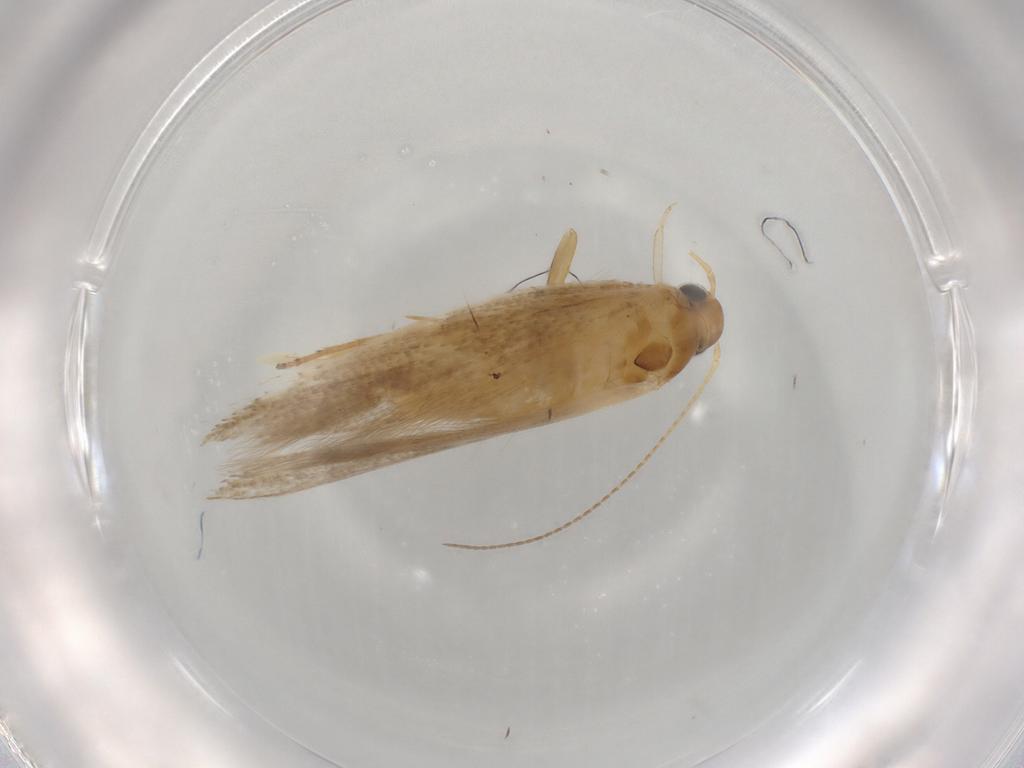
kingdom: Animalia
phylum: Arthropoda
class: Insecta
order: Lepidoptera
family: Gelechiidae
